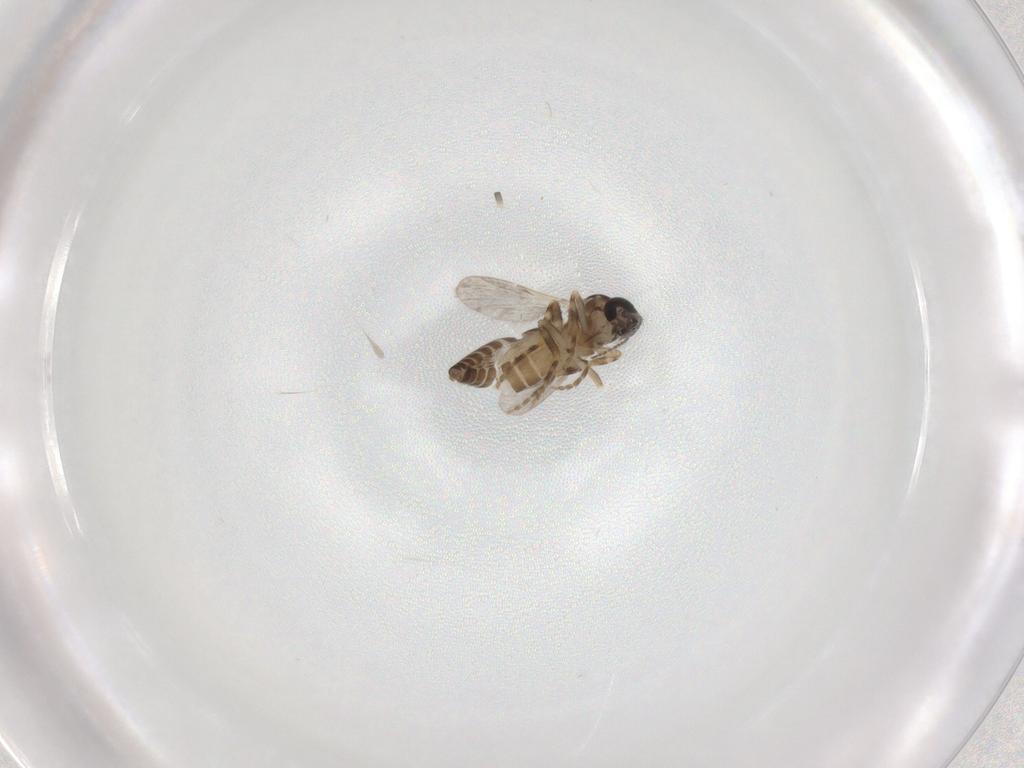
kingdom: Animalia
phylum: Arthropoda
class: Insecta
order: Diptera
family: Ceratopogonidae
